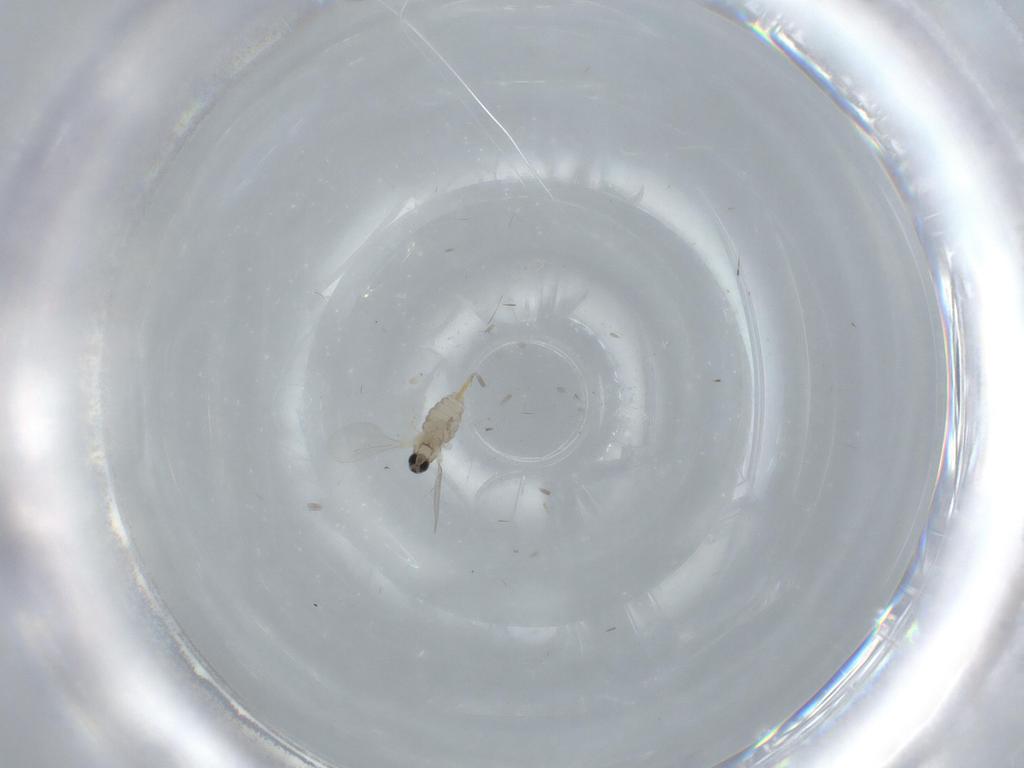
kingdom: Animalia
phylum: Arthropoda
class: Insecta
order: Diptera
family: Cecidomyiidae
